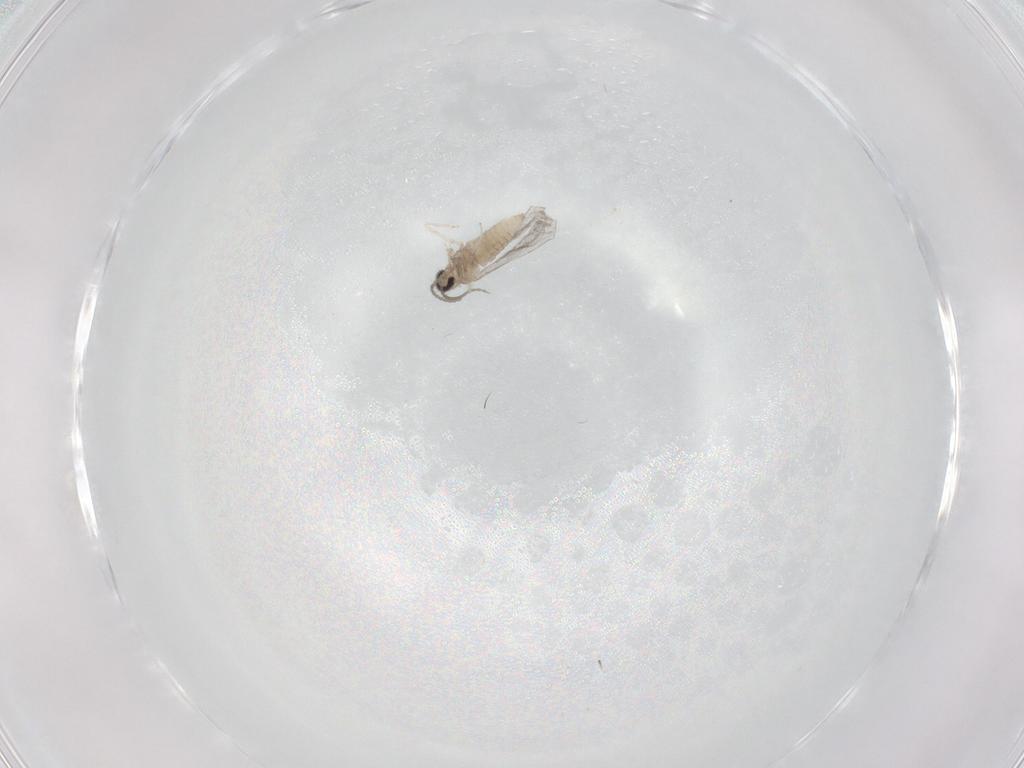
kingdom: Animalia
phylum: Arthropoda
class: Insecta
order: Diptera
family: Cecidomyiidae
